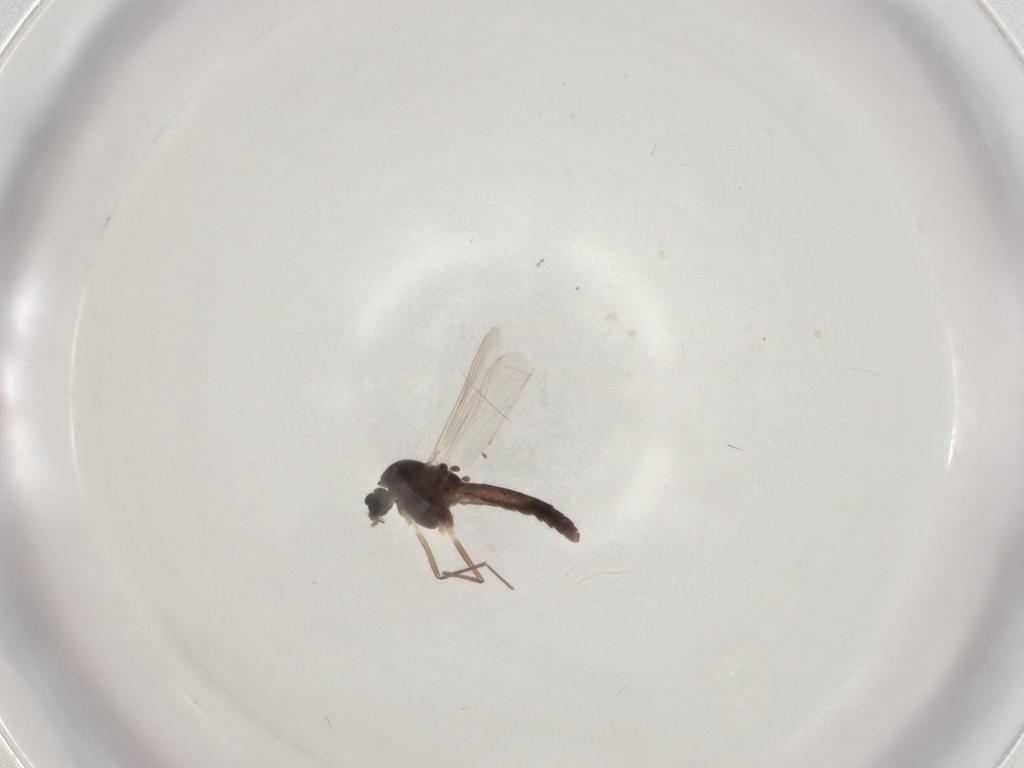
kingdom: Animalia
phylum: Arthropoda
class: Insecta
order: Diptera
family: Chironomidae
